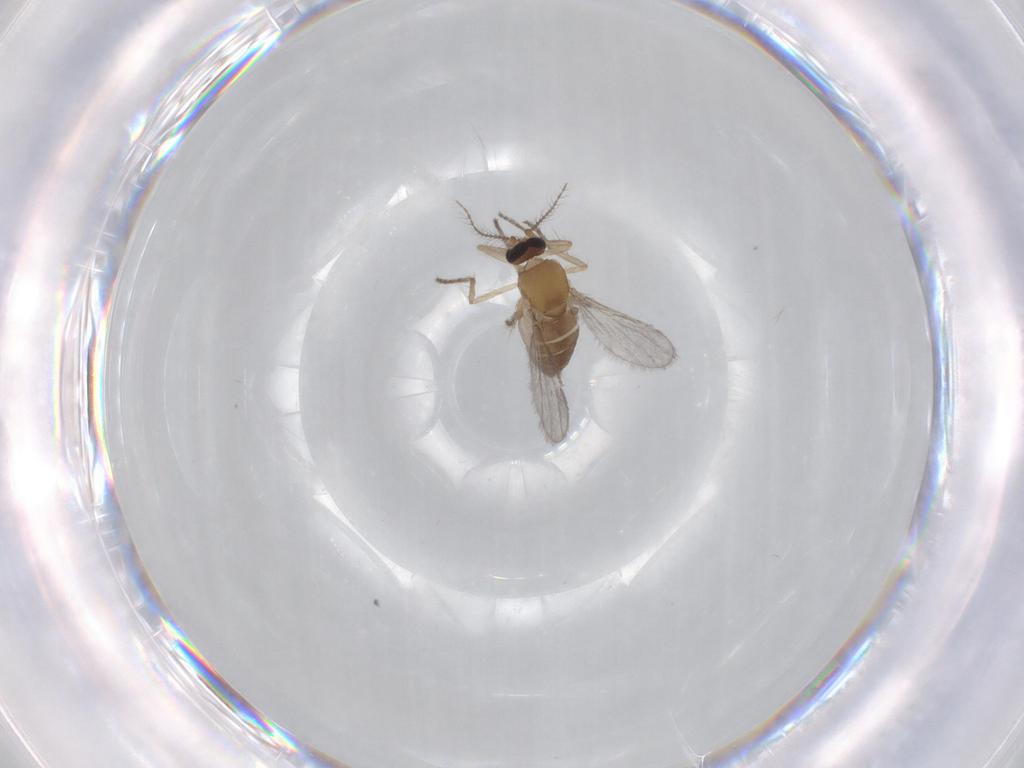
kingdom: Animalia
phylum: Arthropoda
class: Insecta
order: Diptera
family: Ceratopogonidae
